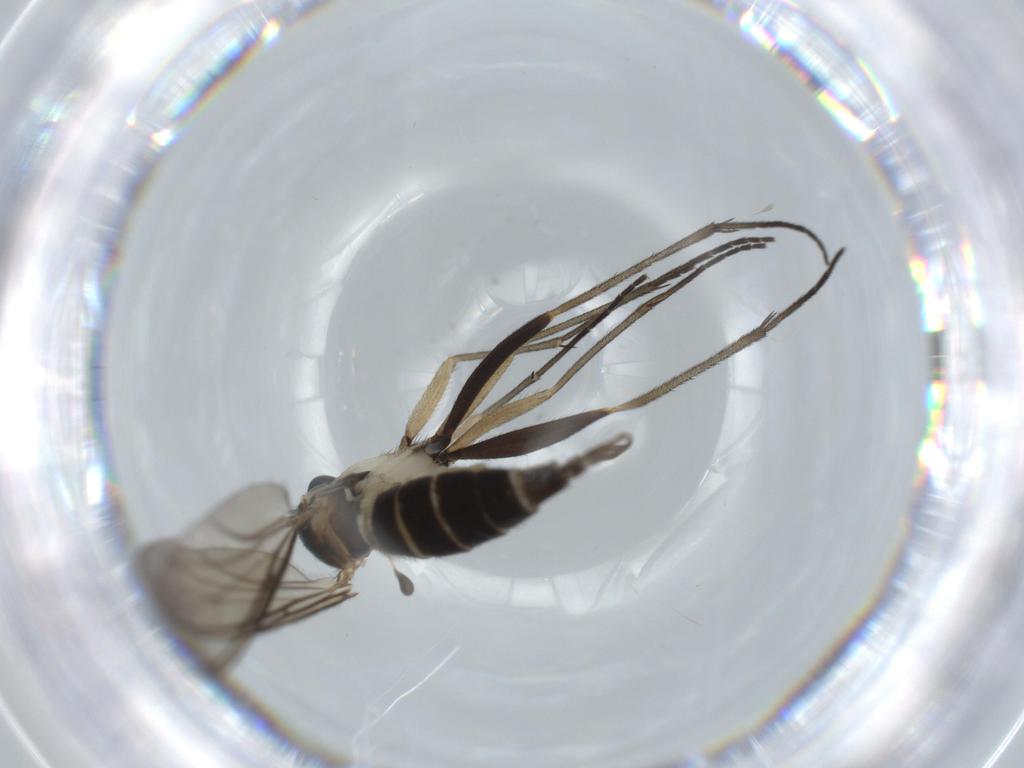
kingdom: Animalia
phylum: Arthropoda
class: Insecta
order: Diptera
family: Sciaridae
